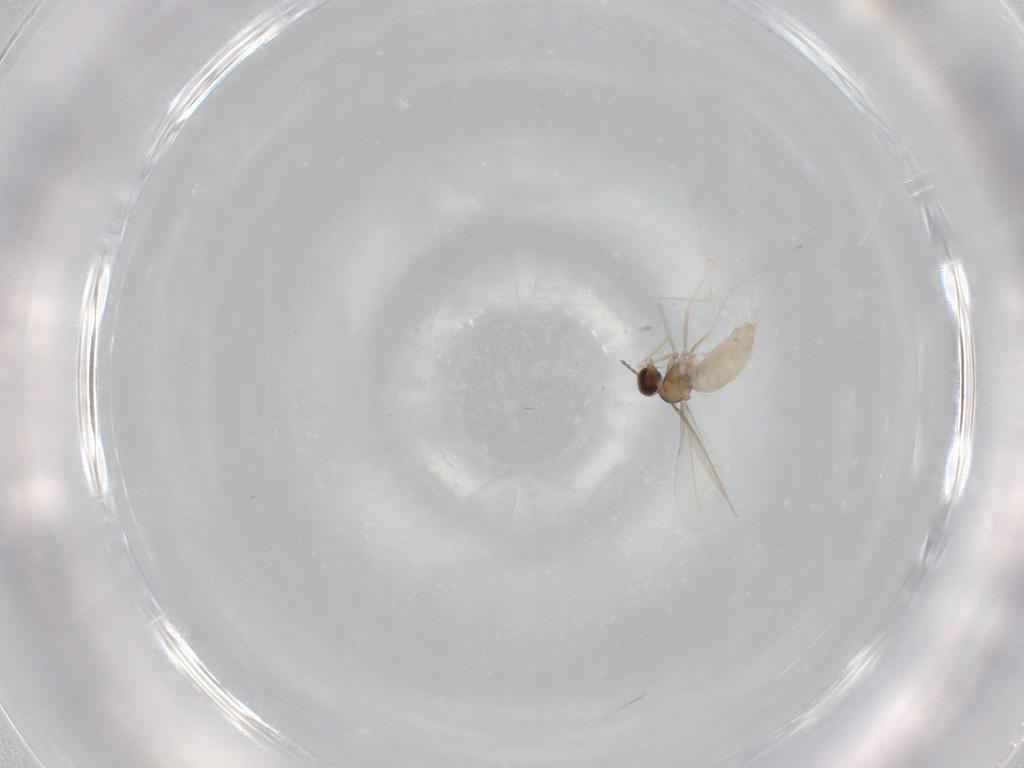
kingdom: Animalia
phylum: Arthropoda
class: Insecta
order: Diptera
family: Cecidomyiidae
